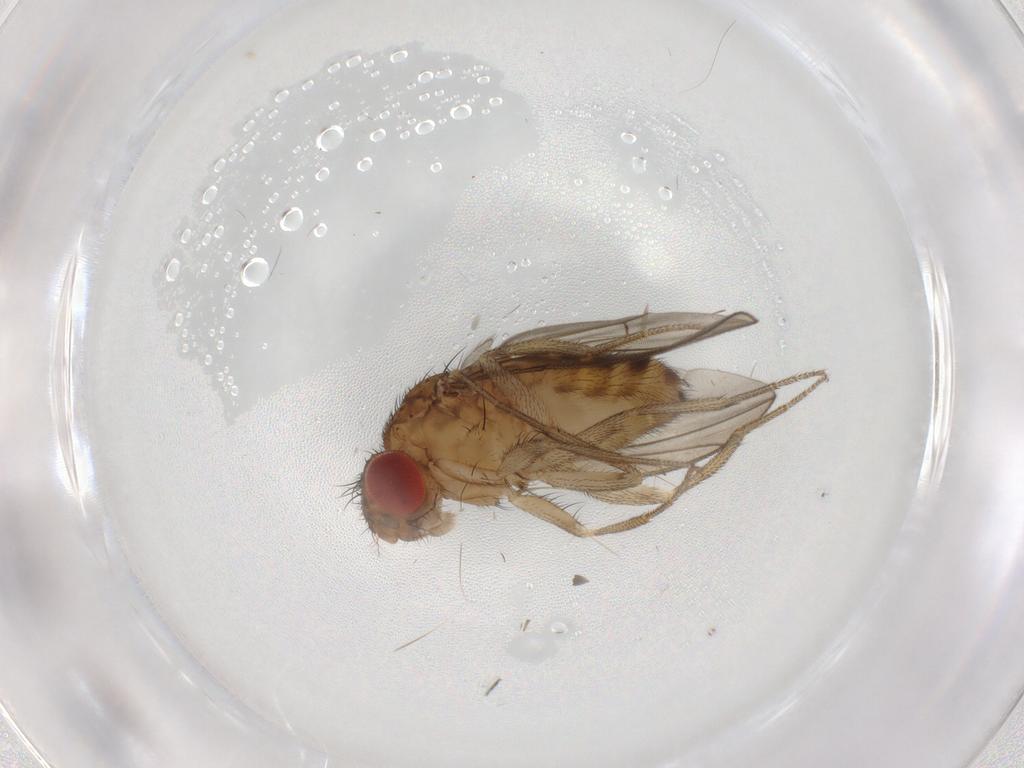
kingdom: Animalia
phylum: Arthropoda
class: Insecta
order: Diptera
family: Drosophilidae
